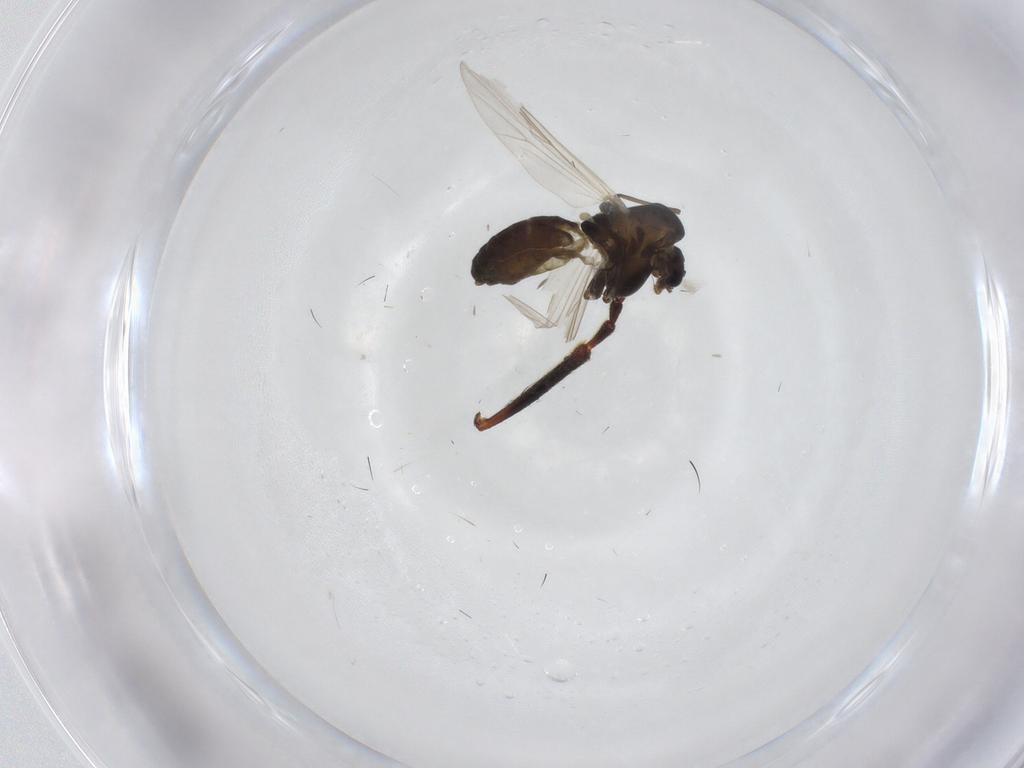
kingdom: Animalia
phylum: Arthropoda
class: Insecta
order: Diptera
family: Chironomidae
